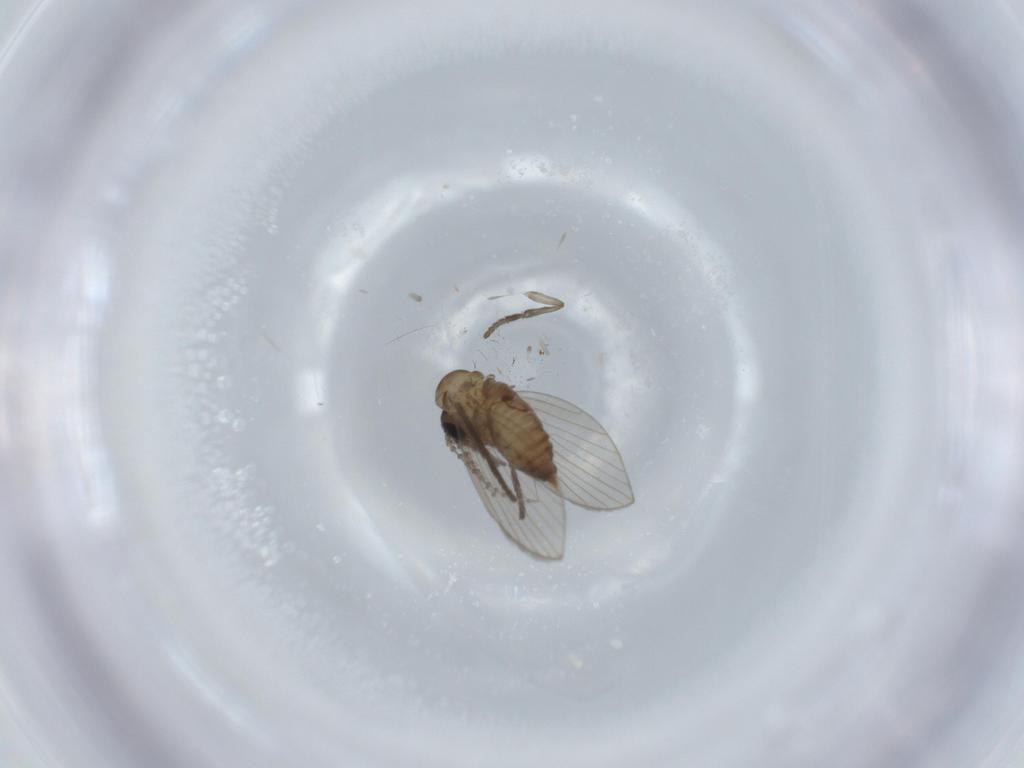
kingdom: Animalia
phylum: Arthropoda
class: Insecta
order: Diptera
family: Psychodidae
